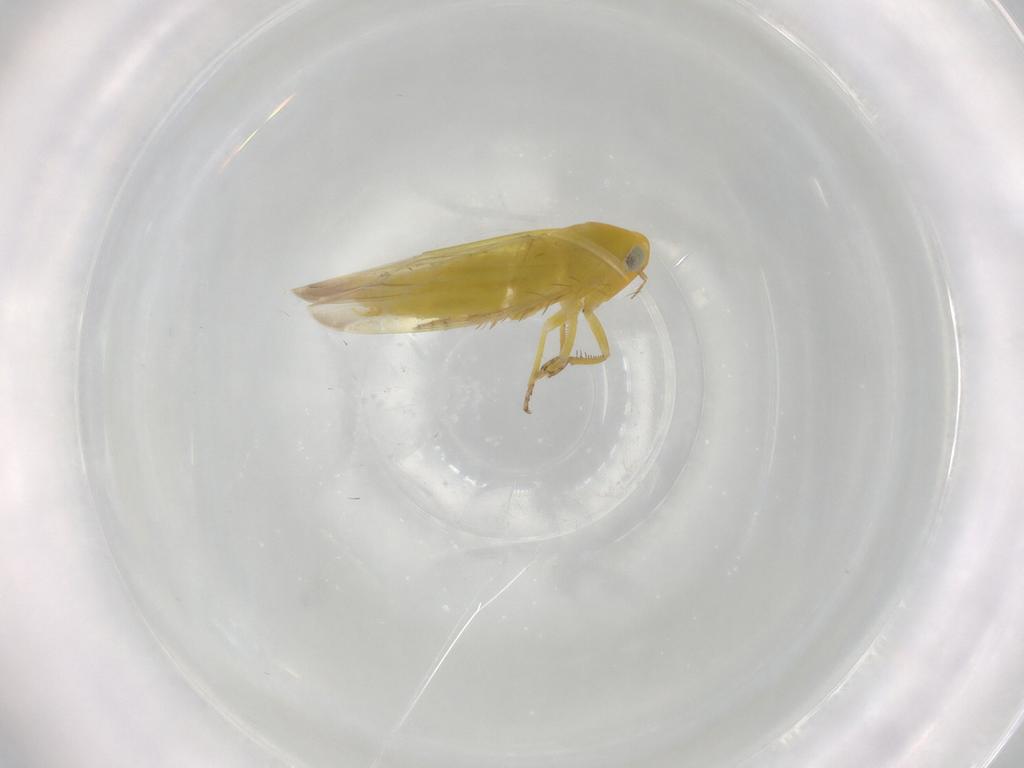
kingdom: Animalia
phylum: Arthropoda
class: Insecta
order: Hemiptera
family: Cicadellidae
